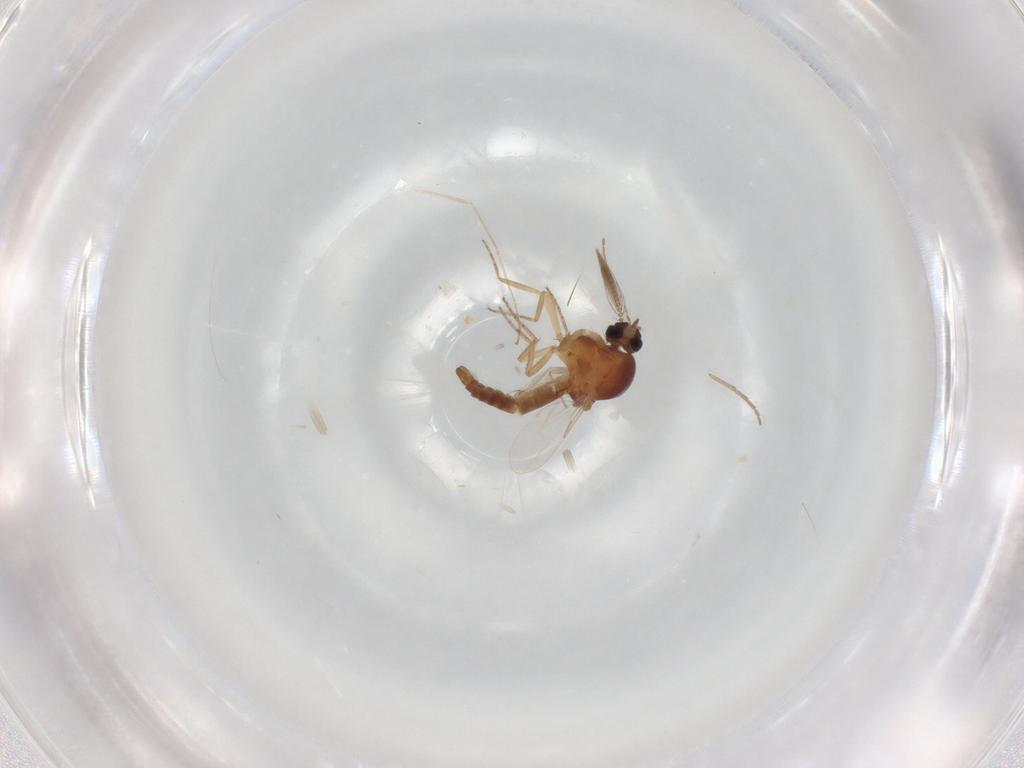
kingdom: Animalia
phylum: Arthropoda
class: Insecta
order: Diptera
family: Ceratopogonidae
